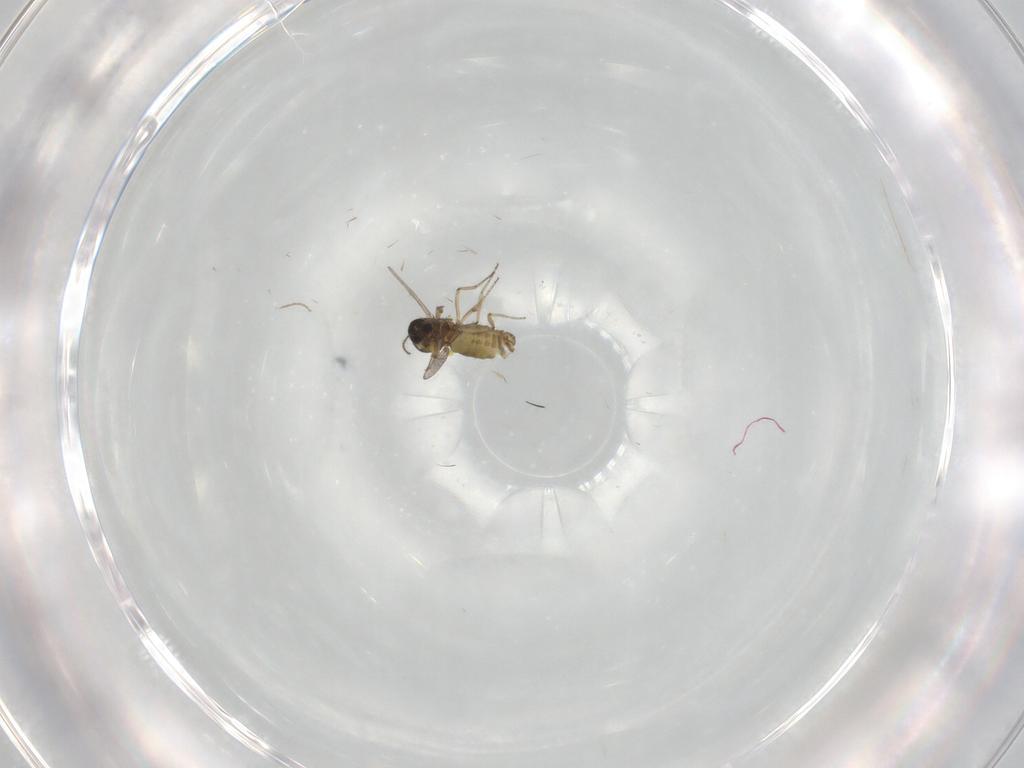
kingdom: Animalia
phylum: Arthropoda
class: Insecta
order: Diptera
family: Ceratopogonidae
